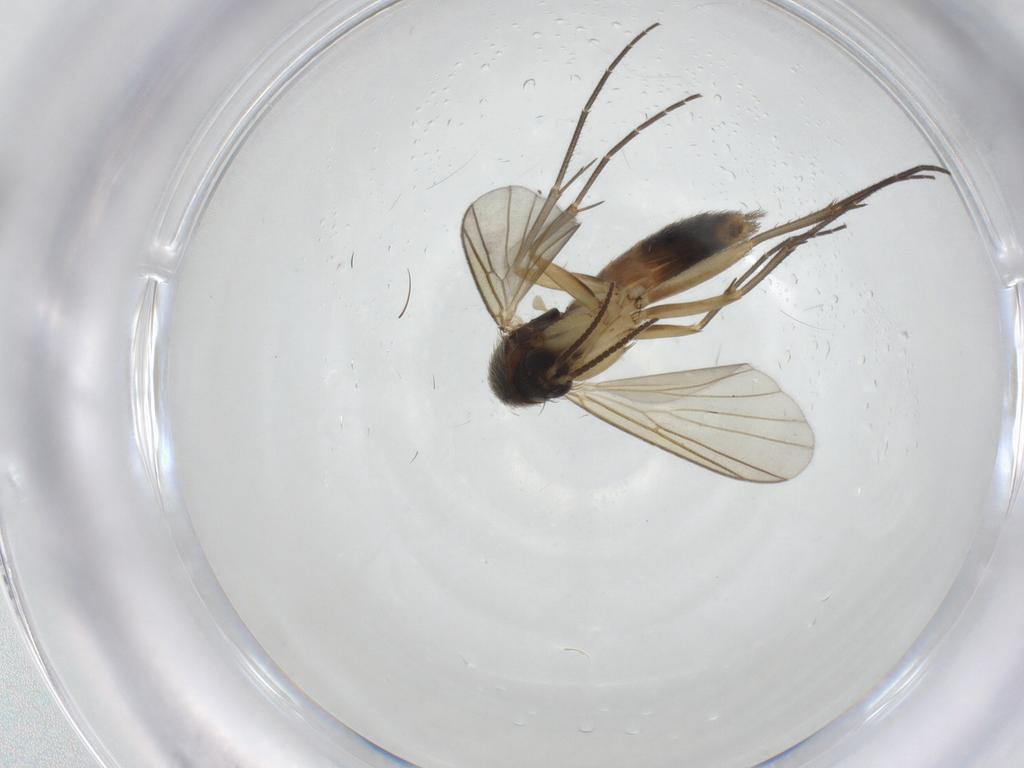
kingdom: Animalia
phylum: Arthropoda
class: Insecta
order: Diptera
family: Mycetophilidae
